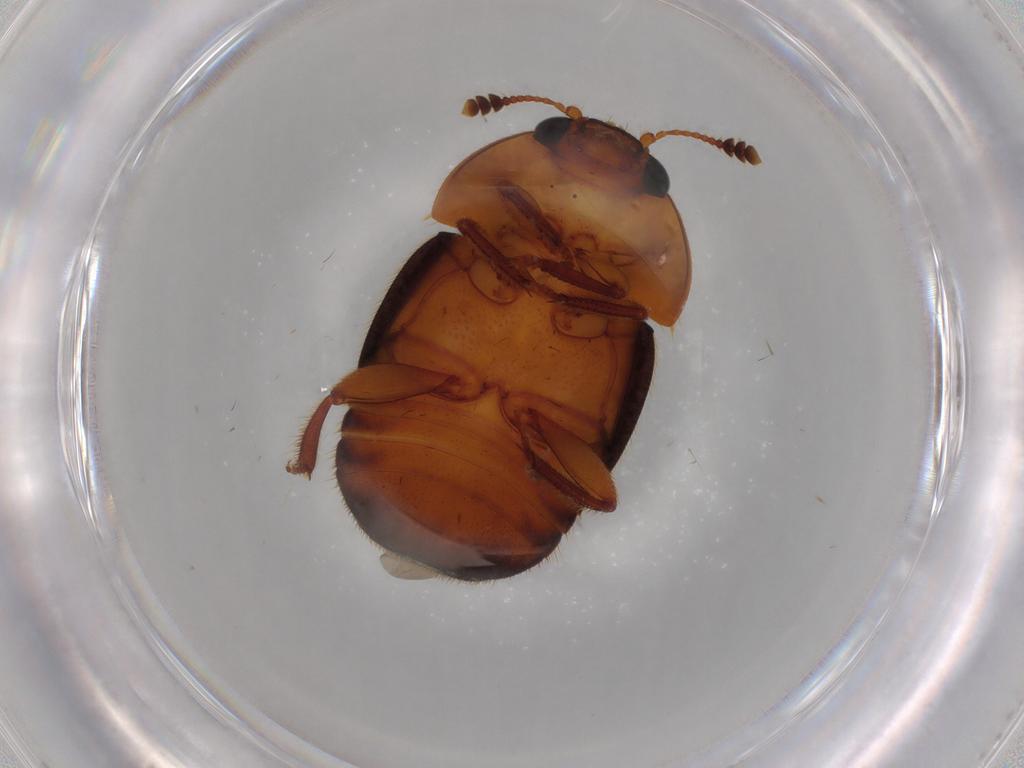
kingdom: Animalia
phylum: Arthropoda
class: Insecta
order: Coleoptera
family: Nitidulidae
